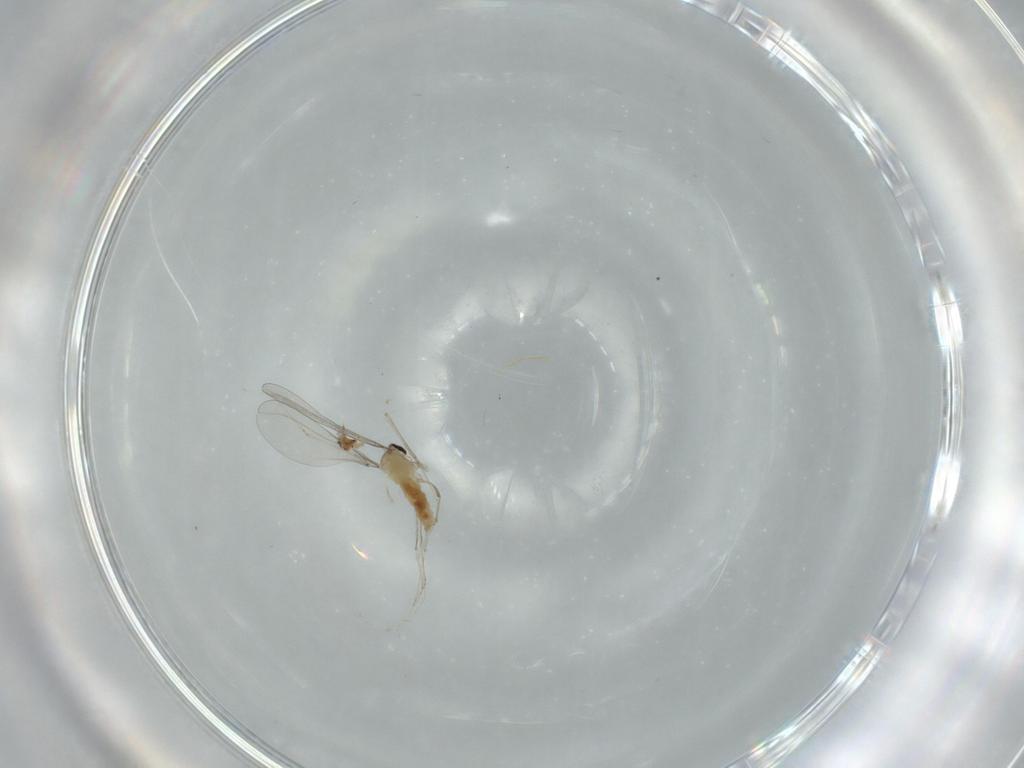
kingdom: Animalia
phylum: Arthropoda
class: Insecta
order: Diptera
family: Cecidomyiidae
